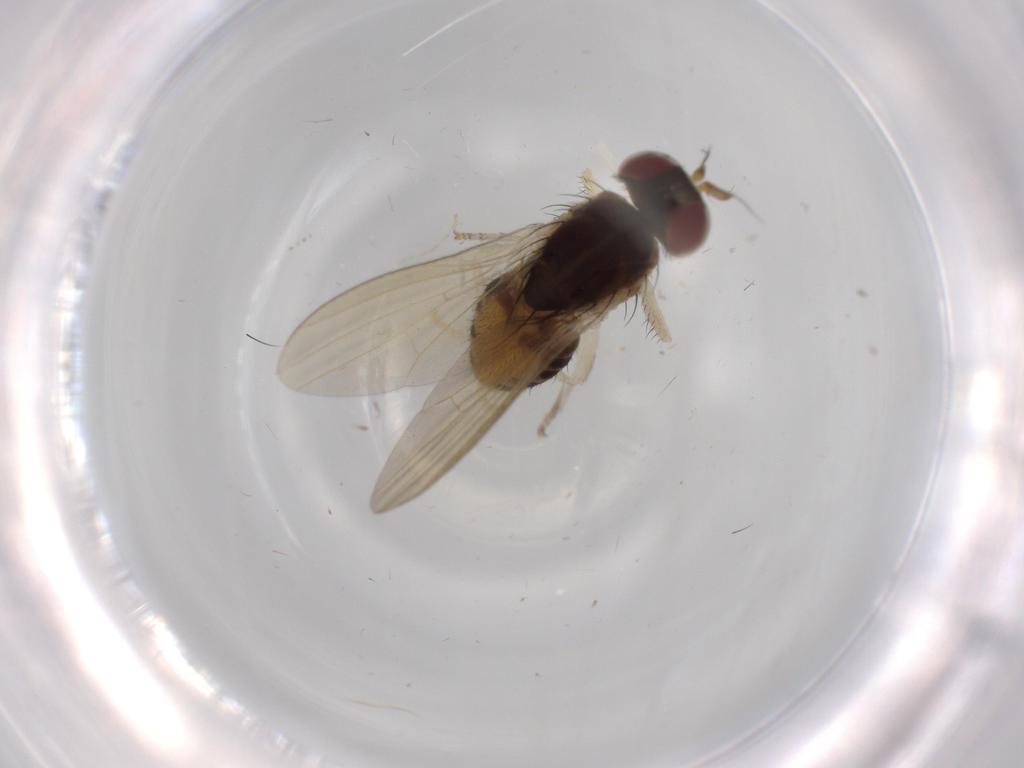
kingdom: Animalia
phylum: Arthropoda
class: Insecta
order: Diptera
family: Cecidomyiidae
